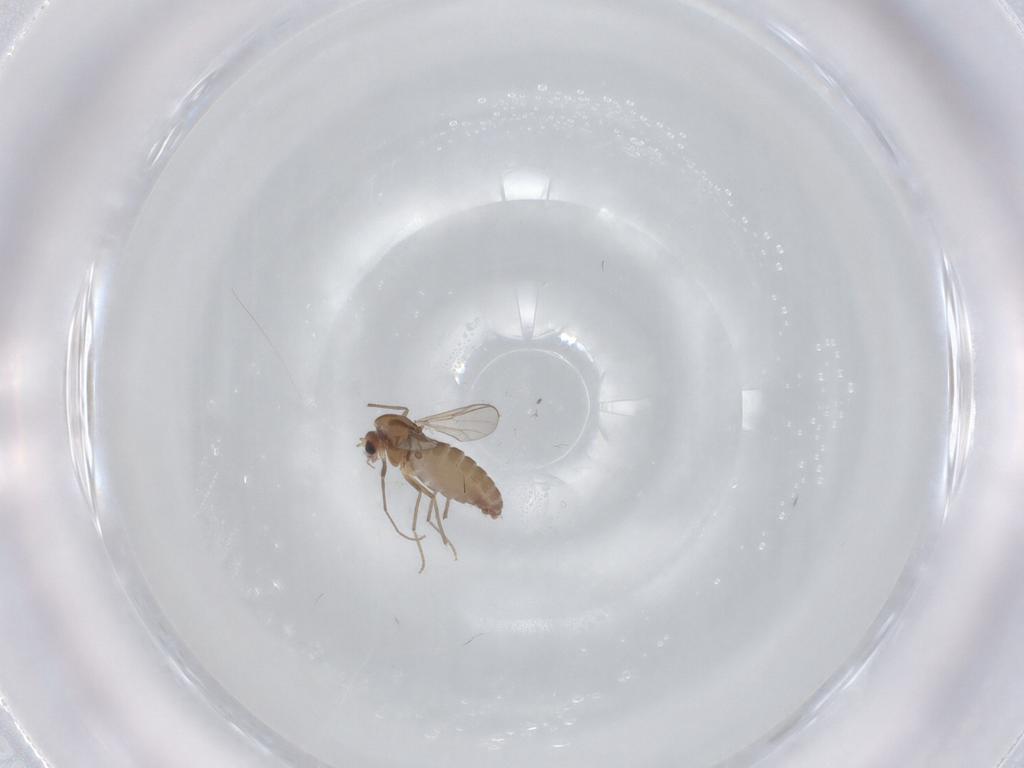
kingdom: Animalia
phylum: Arthropoda
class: Insecta
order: Diptera
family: Chironomidae
